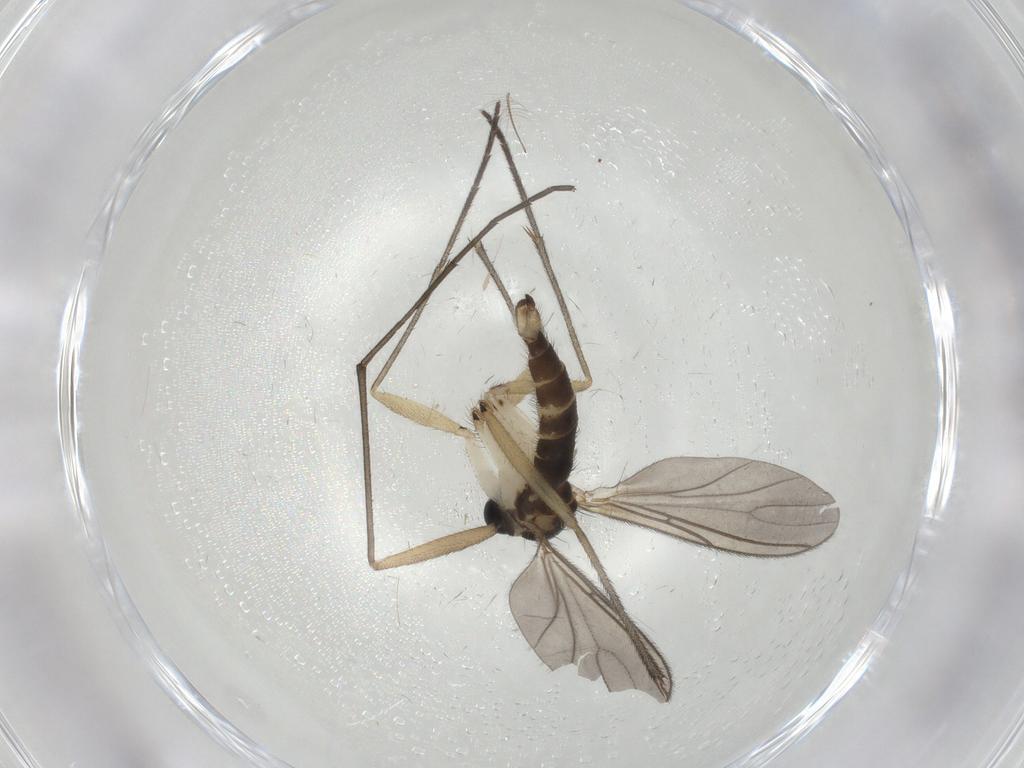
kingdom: Animalia
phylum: Arthropoda
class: Insecta
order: Diptera
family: Sciaridae
